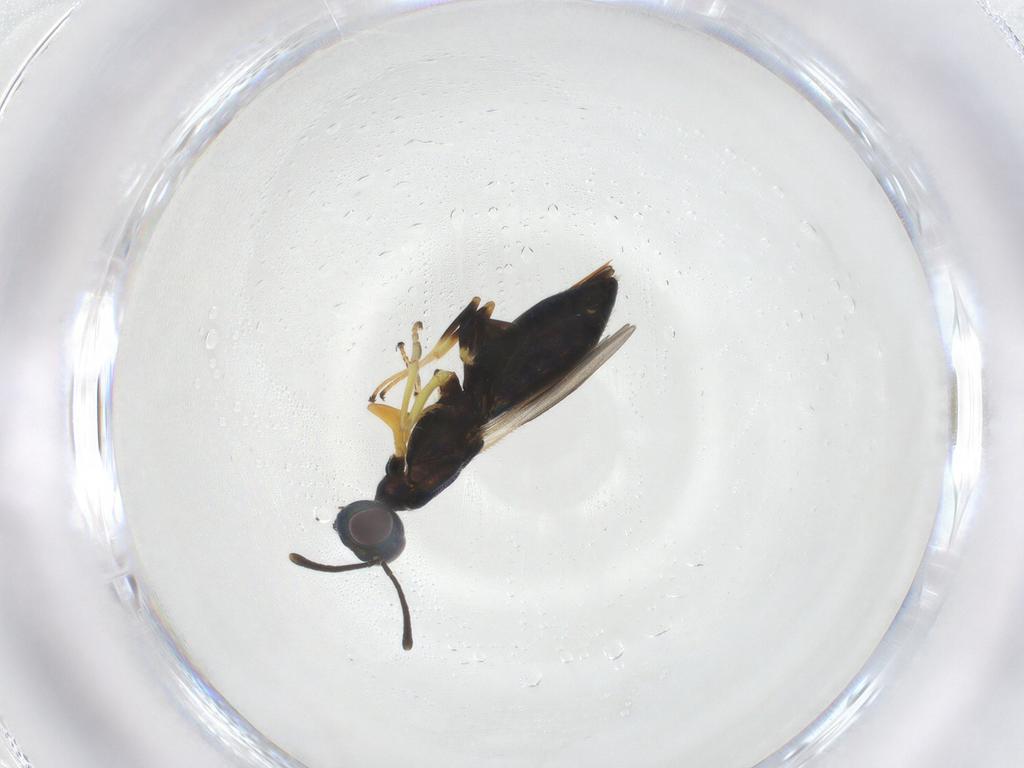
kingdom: Animalia
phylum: Arthropoda
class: Insecta
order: Hymenoptera
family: Eupelmidae
